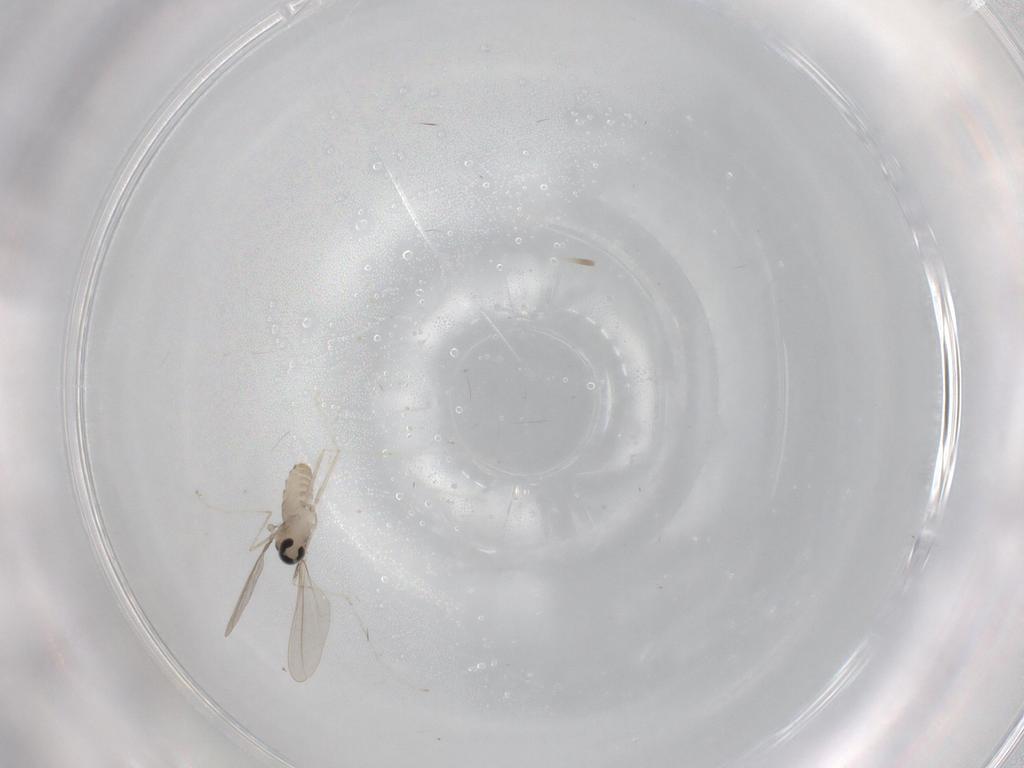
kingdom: Animalia
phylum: Arthropoda
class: Insecta
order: Diptera
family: Cecidomyiidae
